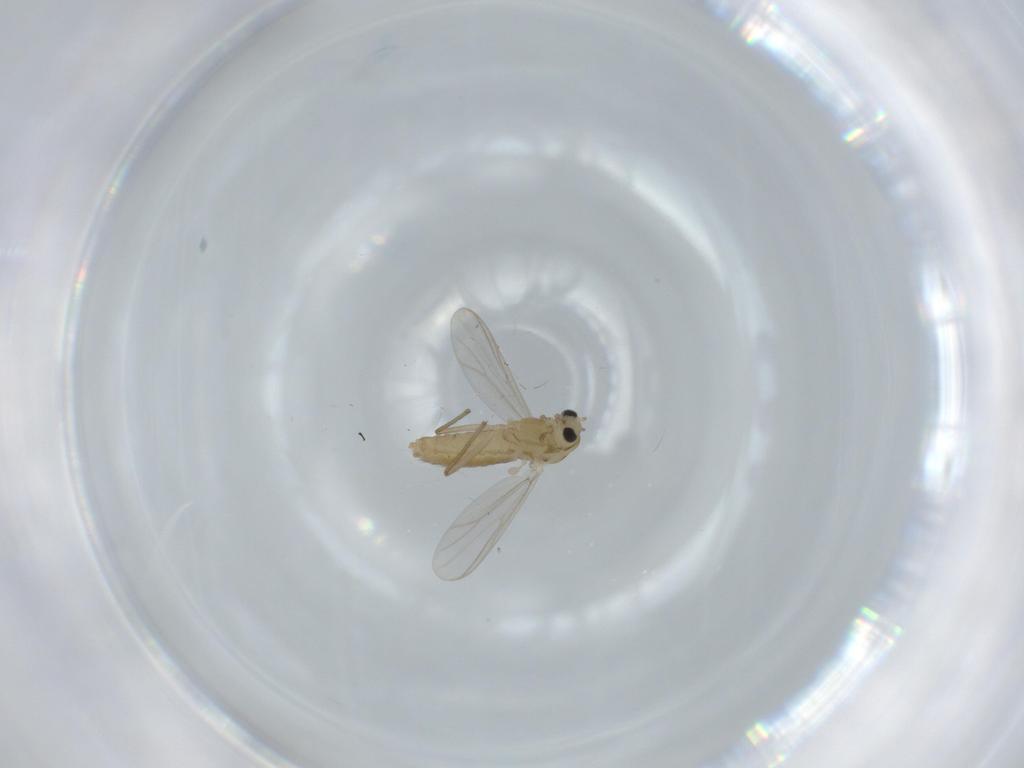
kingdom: Animalia
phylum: Arthropoda
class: Insecta
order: Diptera
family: Chironomidae
